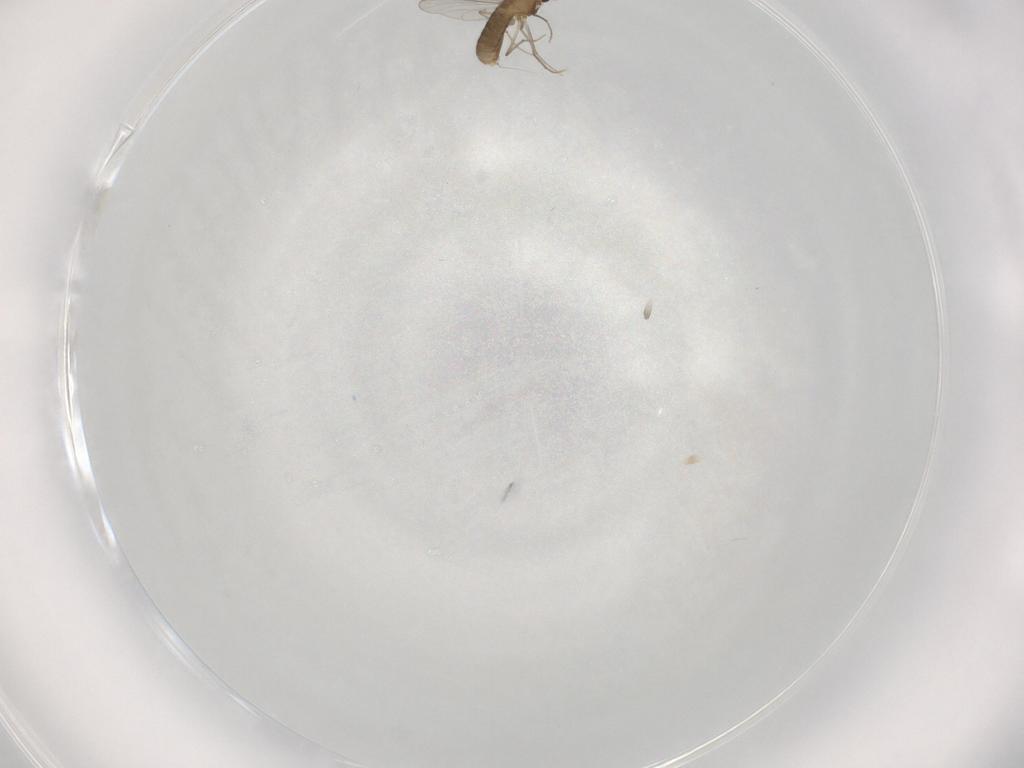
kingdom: Animalia
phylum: Arthropoda
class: Insecta
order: Diptera
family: Chironomidae
